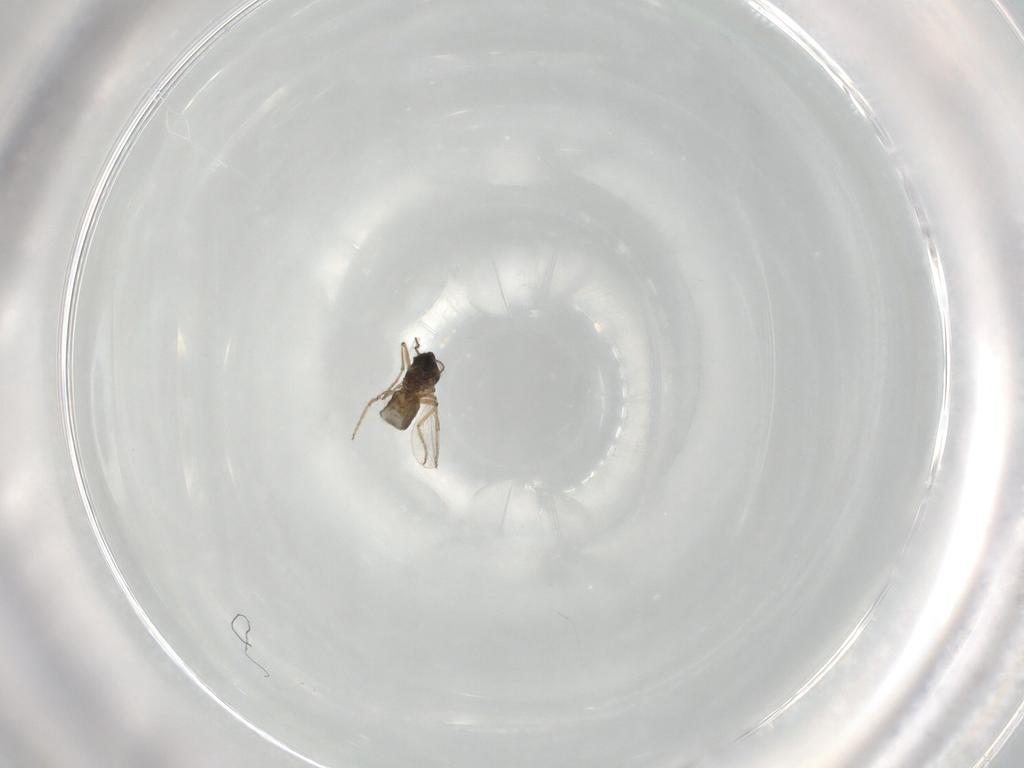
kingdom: Animalia
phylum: Arthropoda
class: Insecta
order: Diptera
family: Ceratopogonidae
